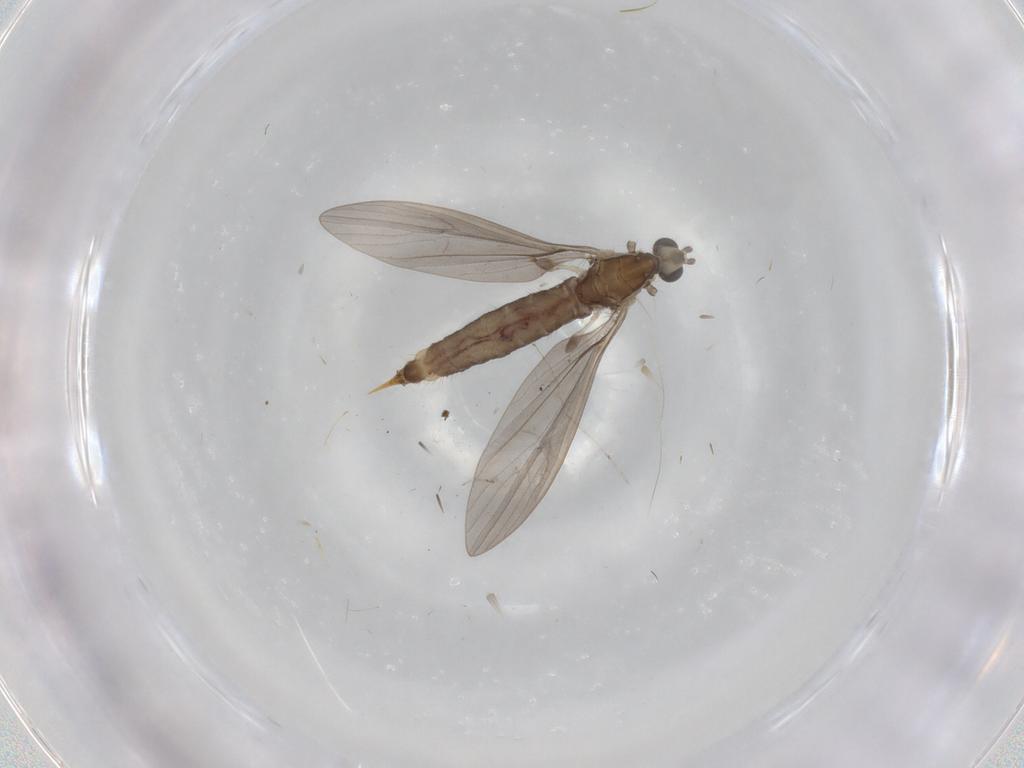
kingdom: Animalia
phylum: Arthropoda
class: Insecta
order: Diptera
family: Limoniidae
